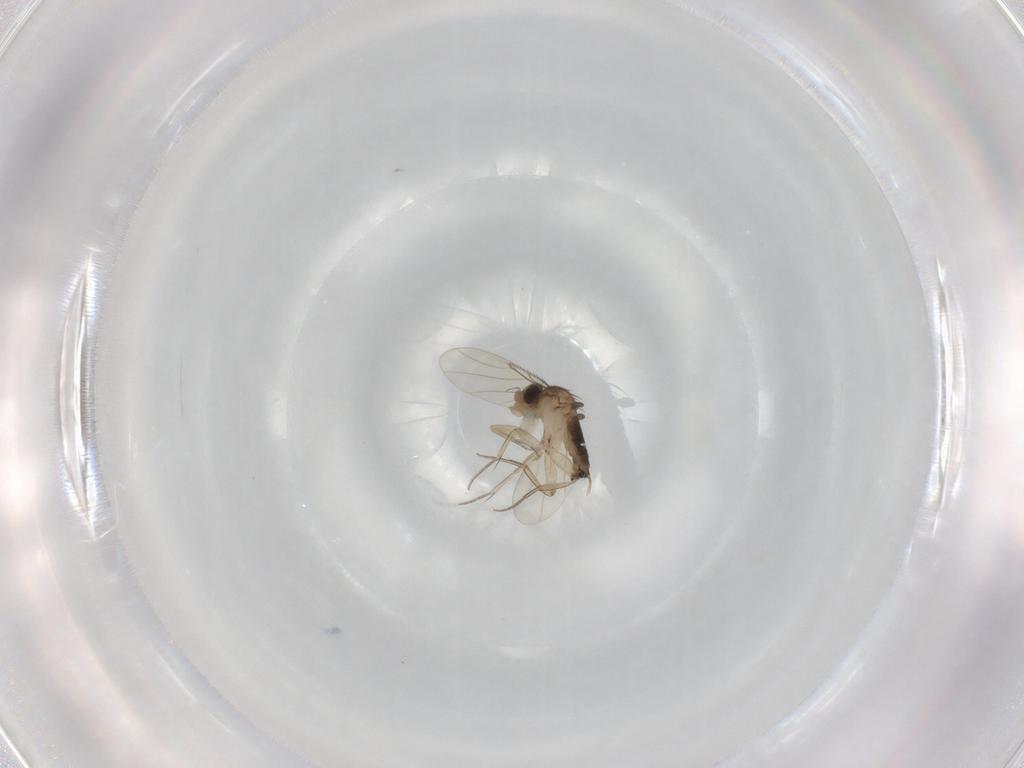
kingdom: Animalia
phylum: Arthropoda
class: Insecta
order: Diptera
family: Phoridae
